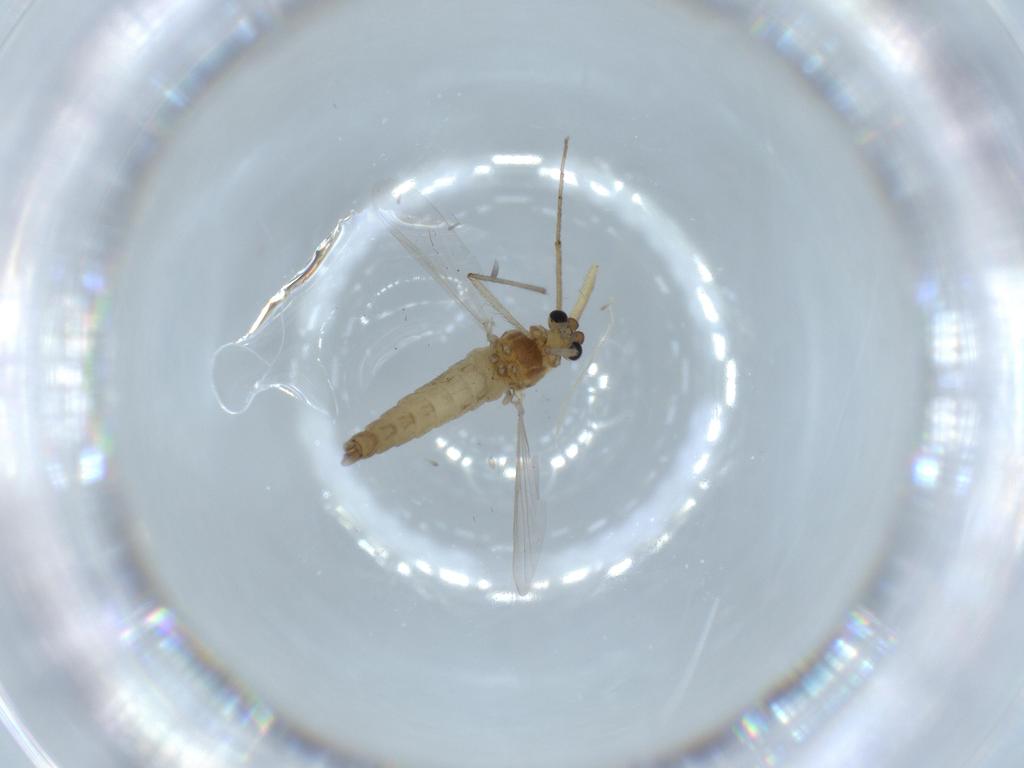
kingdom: Animalia
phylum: Arthropoda
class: Insecta
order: Diptera
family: Chironomidae
